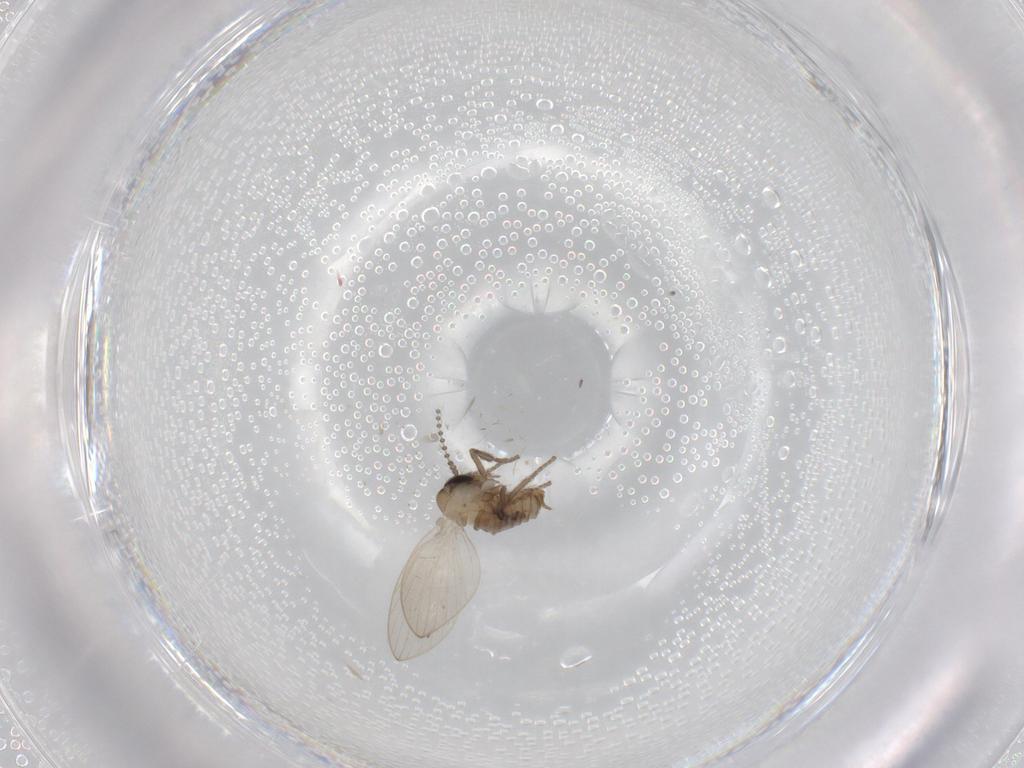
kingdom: Animalia
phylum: Arthropoda
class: Insecta
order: Diptera
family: Psychodidae
